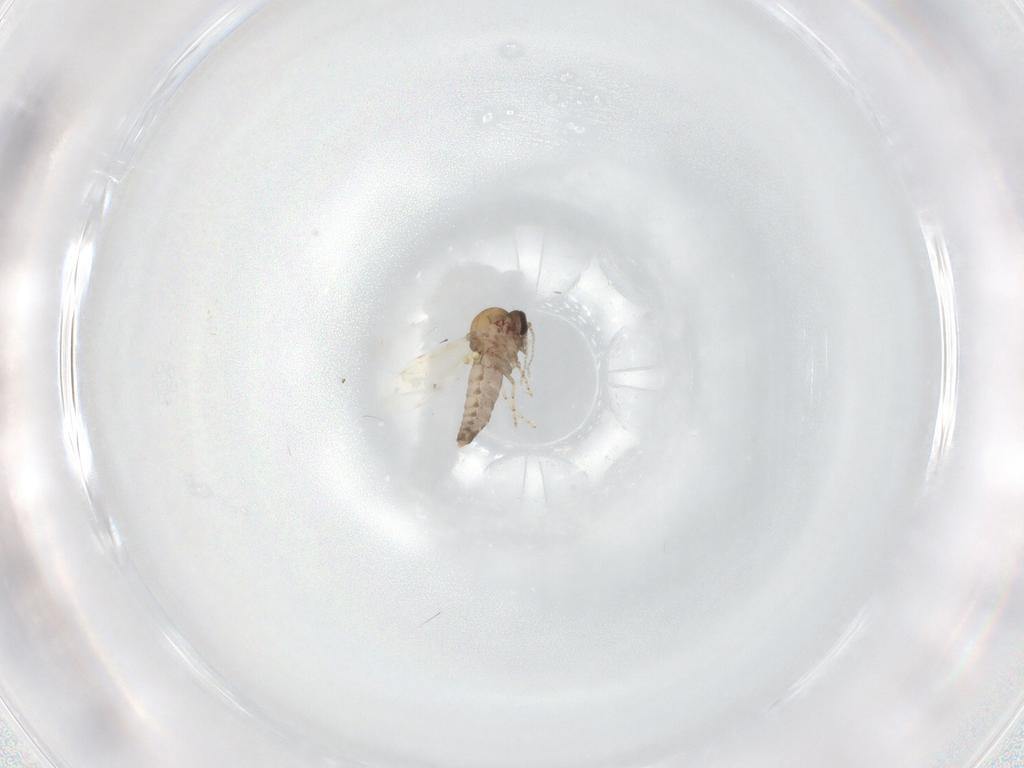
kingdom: Animalia
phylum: Arthropoda
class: Insecta
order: Diptera
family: Ceratopogonidae
